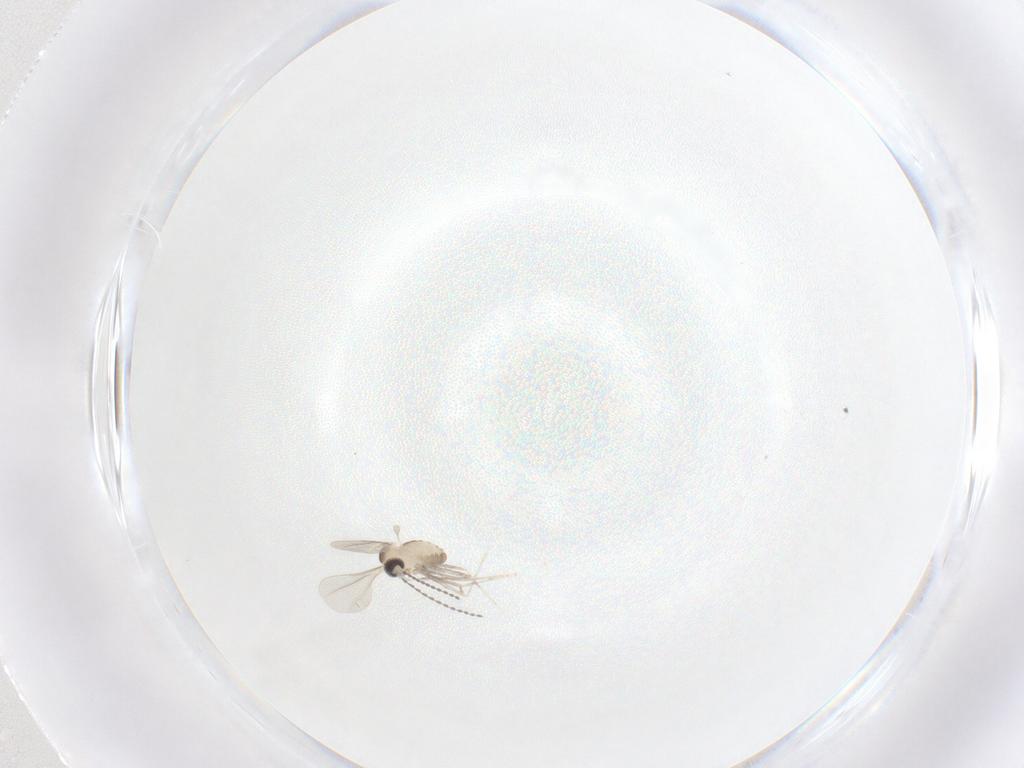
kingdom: Animalia
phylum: Arthropoda
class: Insecta
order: Diptera
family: Cecidomyiidae
